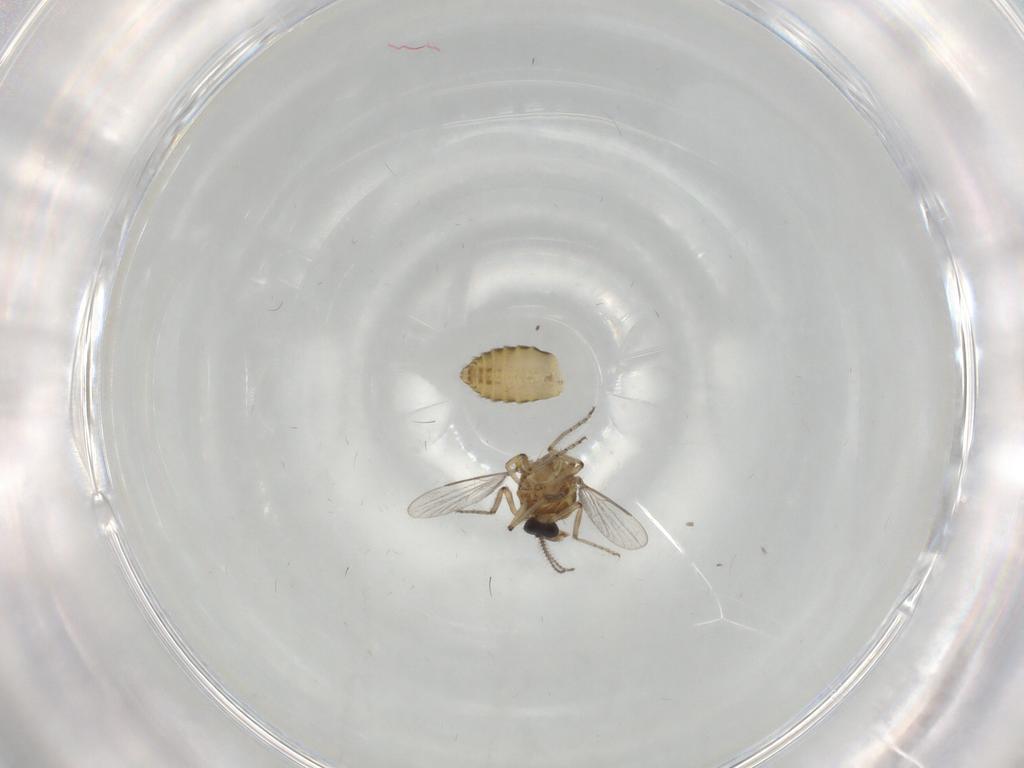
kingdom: Animalia
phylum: Arthropoda
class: Insecta
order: Diptera
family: Ceratopogonidae
